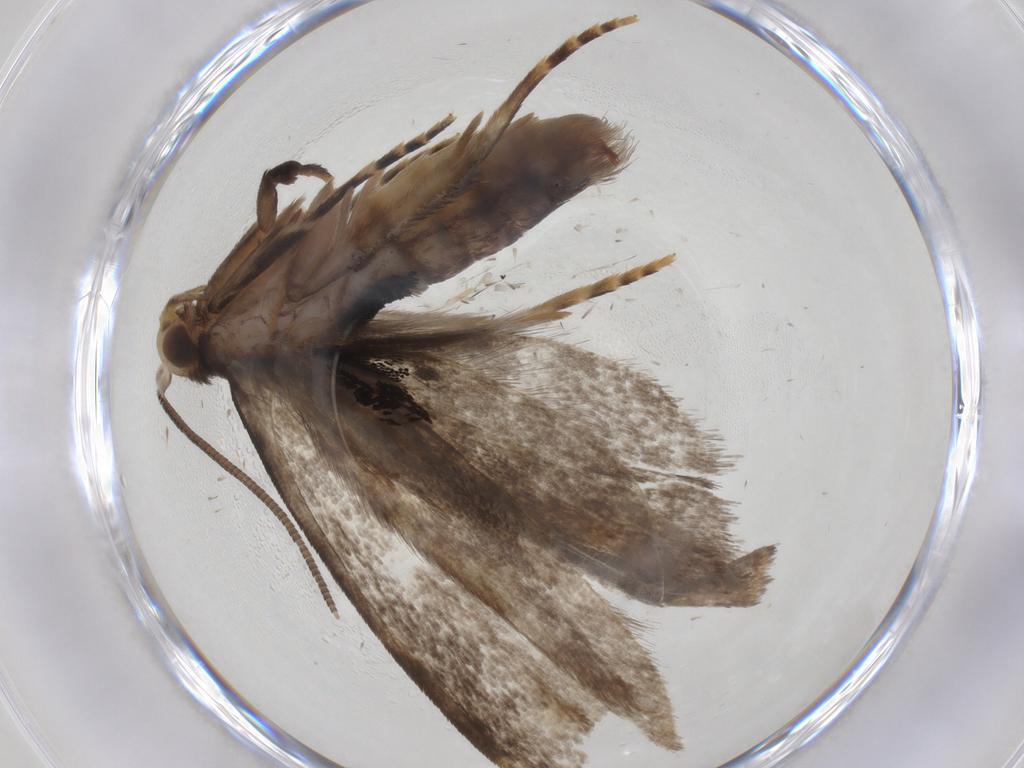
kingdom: Animalia
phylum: Arthropoda
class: Insecta
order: Lepidoptera
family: Dryadaulidae
